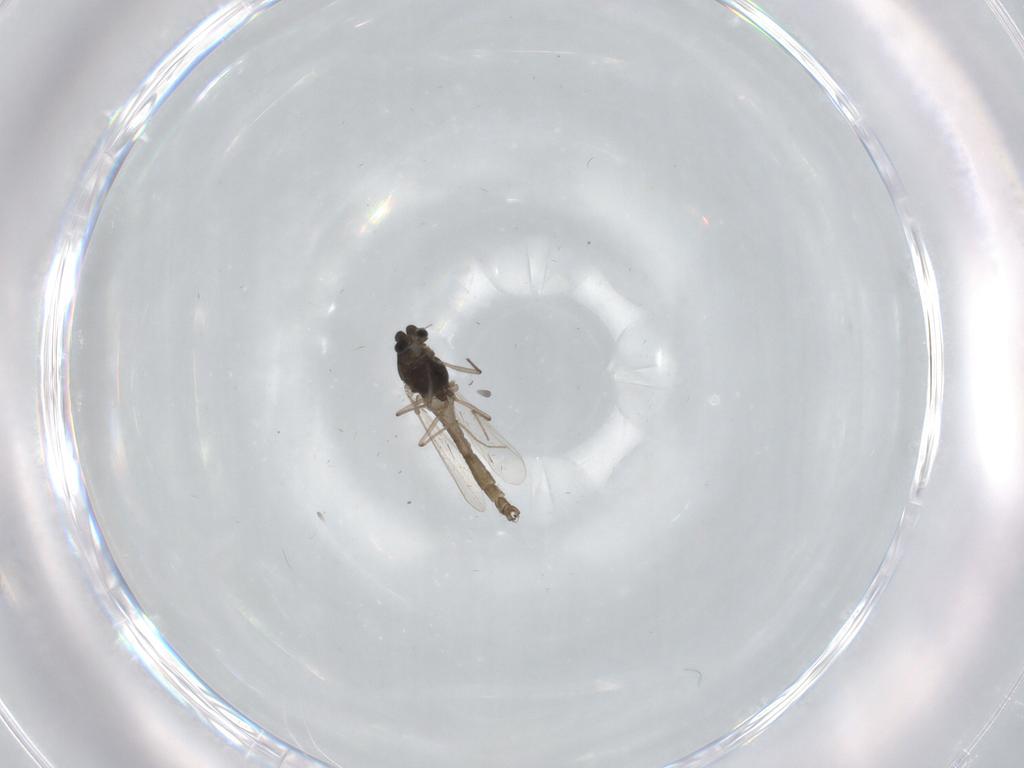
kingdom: Animalia
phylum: Arthropoda
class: Insecta
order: Diptera
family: Chironomidae
